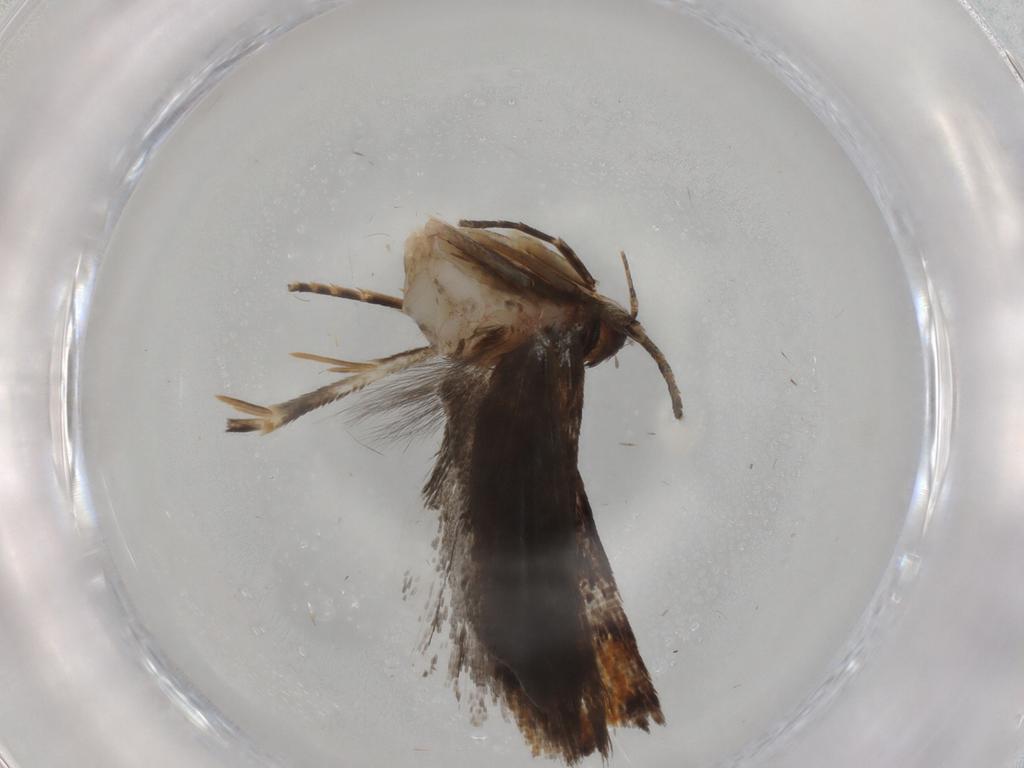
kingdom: Animalia
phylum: Arthropoda
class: Insecta
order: Lepidoptera
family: Gelechiidae
